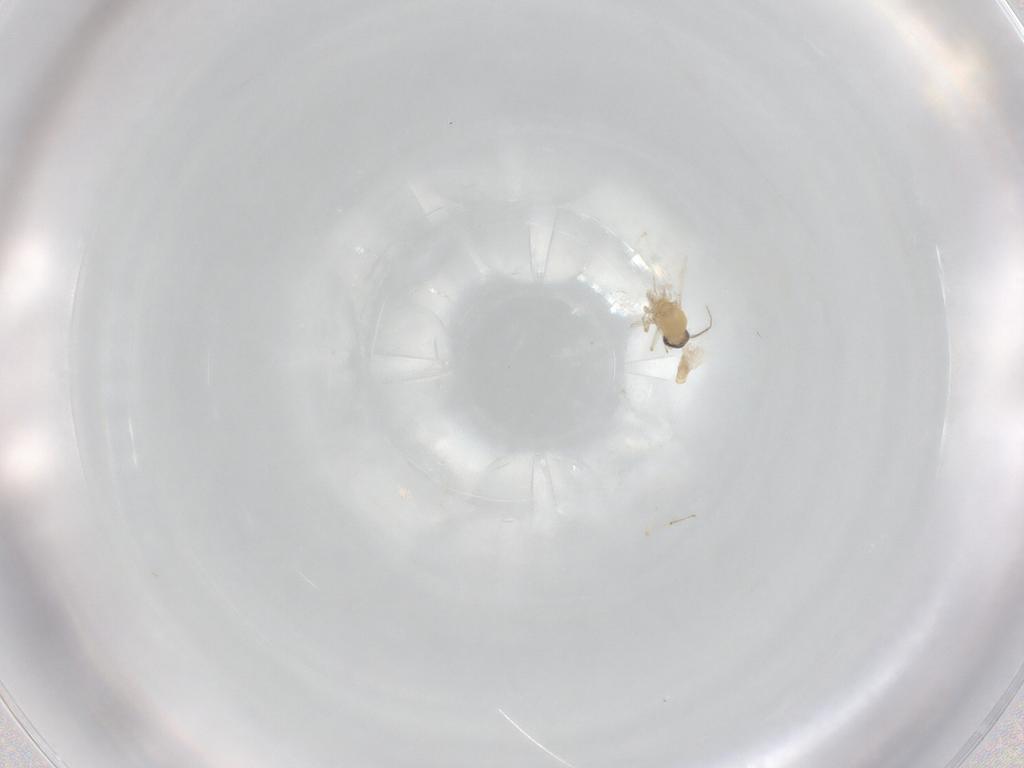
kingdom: Animalia
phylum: Arthropoda
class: Insecta
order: Diptera
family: Ceratopogonidae
